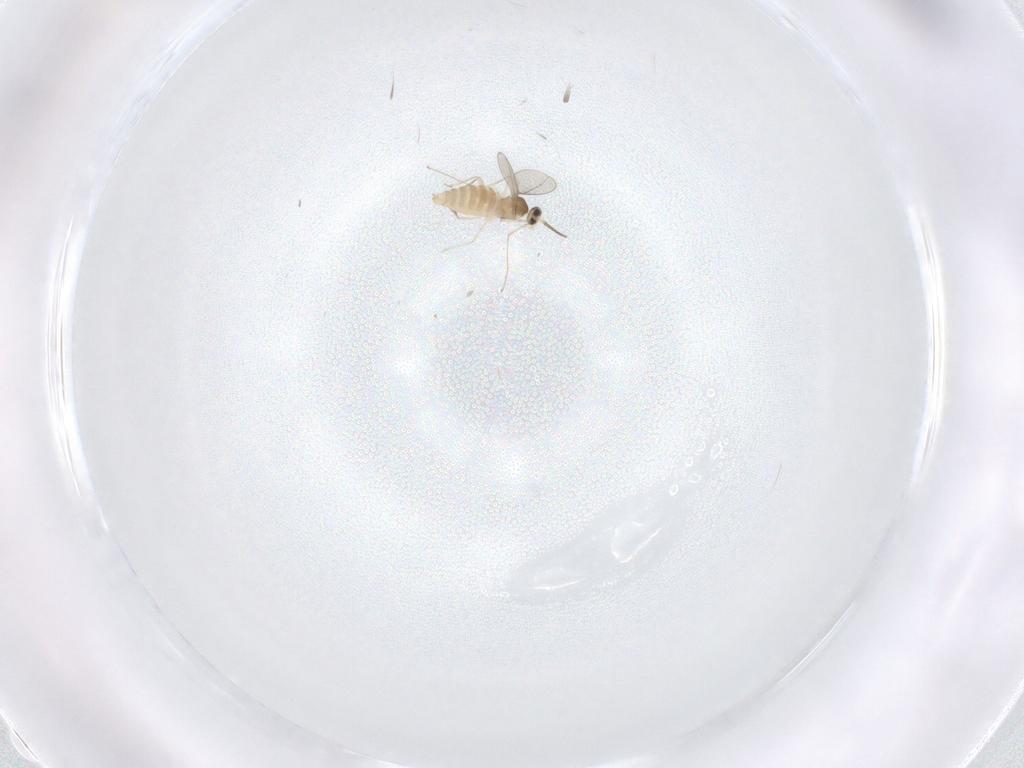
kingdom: Animalia
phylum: Arthropoda
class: Insecta
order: Diptera
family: Cecidomyiidae
